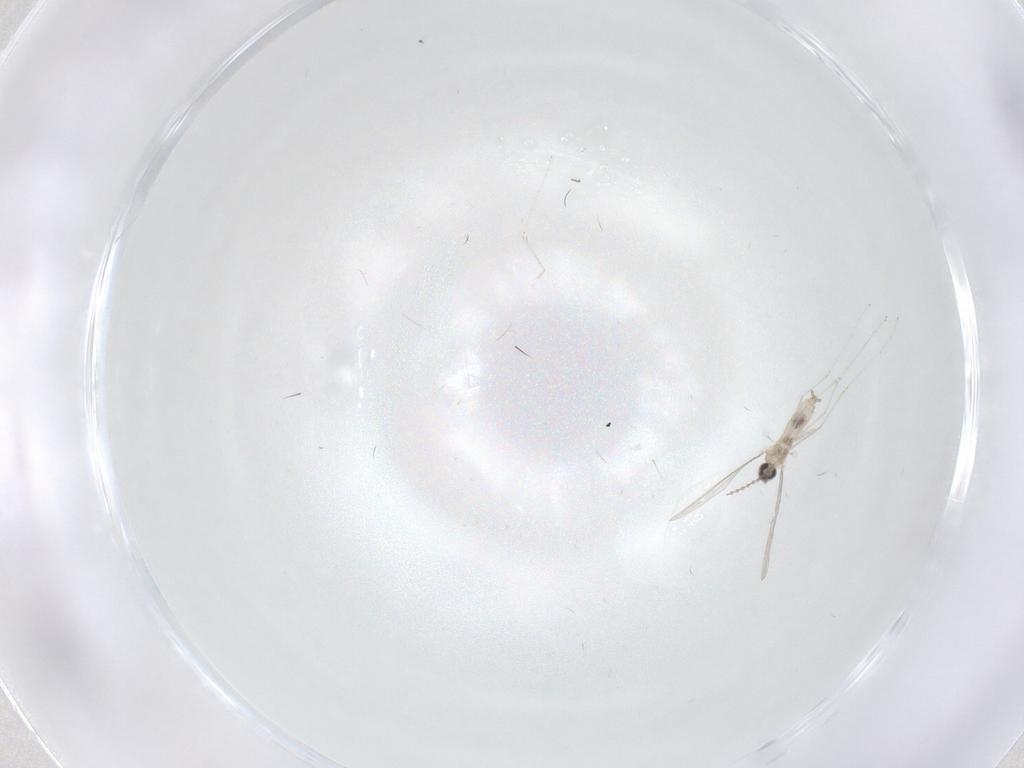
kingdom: Animalia
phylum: Arthropoda
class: Insecta
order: Diptera
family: Cecidomyiidae
